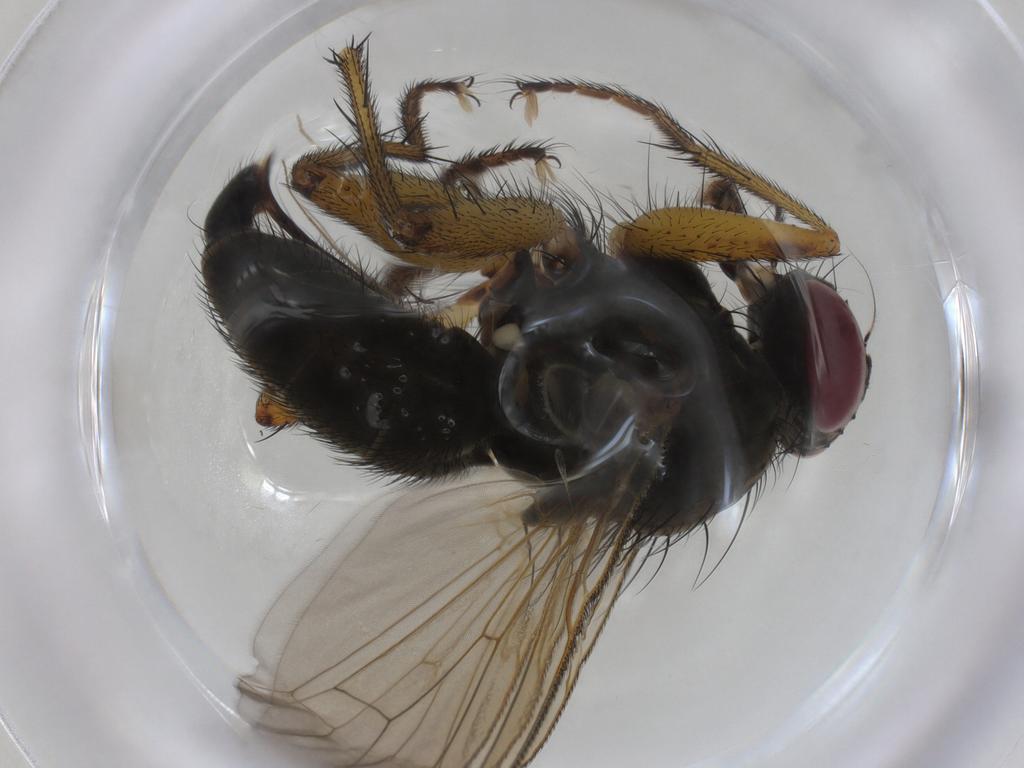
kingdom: Animalia
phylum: Arthropoda
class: Insecta
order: Diptera
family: Muscidae
